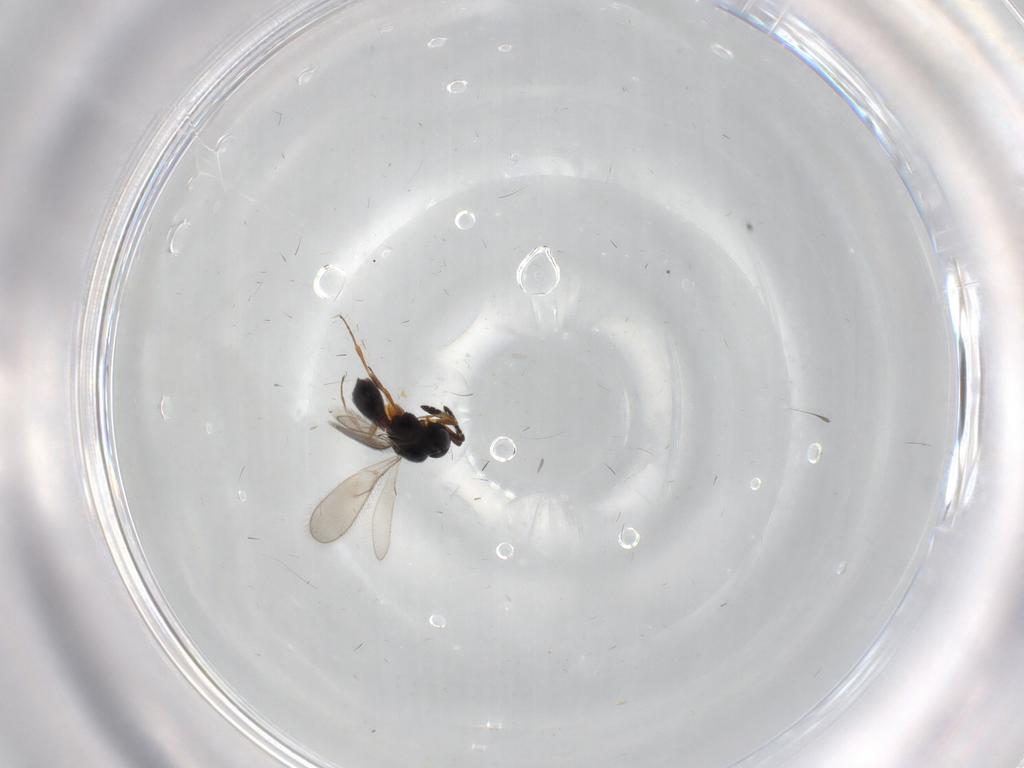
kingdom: Animalia
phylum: Arthropoda
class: Insecta
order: Hymenoptera
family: Scelionidae
